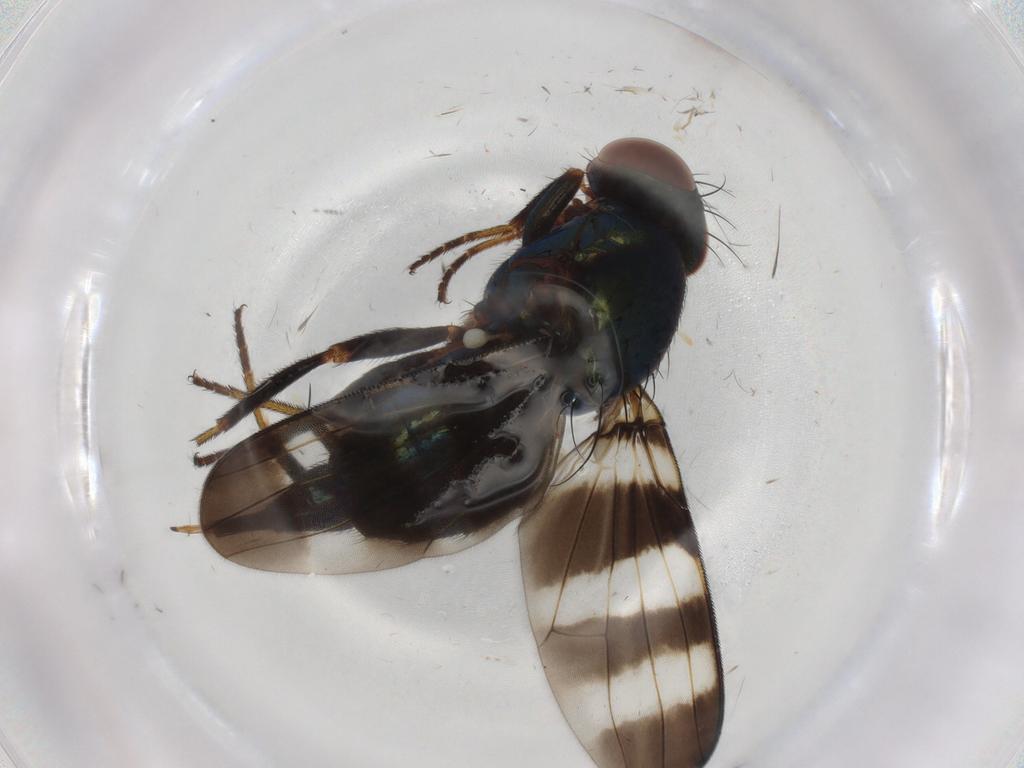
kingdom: Animalia
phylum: Arthropoda
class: Insecta
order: Diptera
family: Ulidiidae
